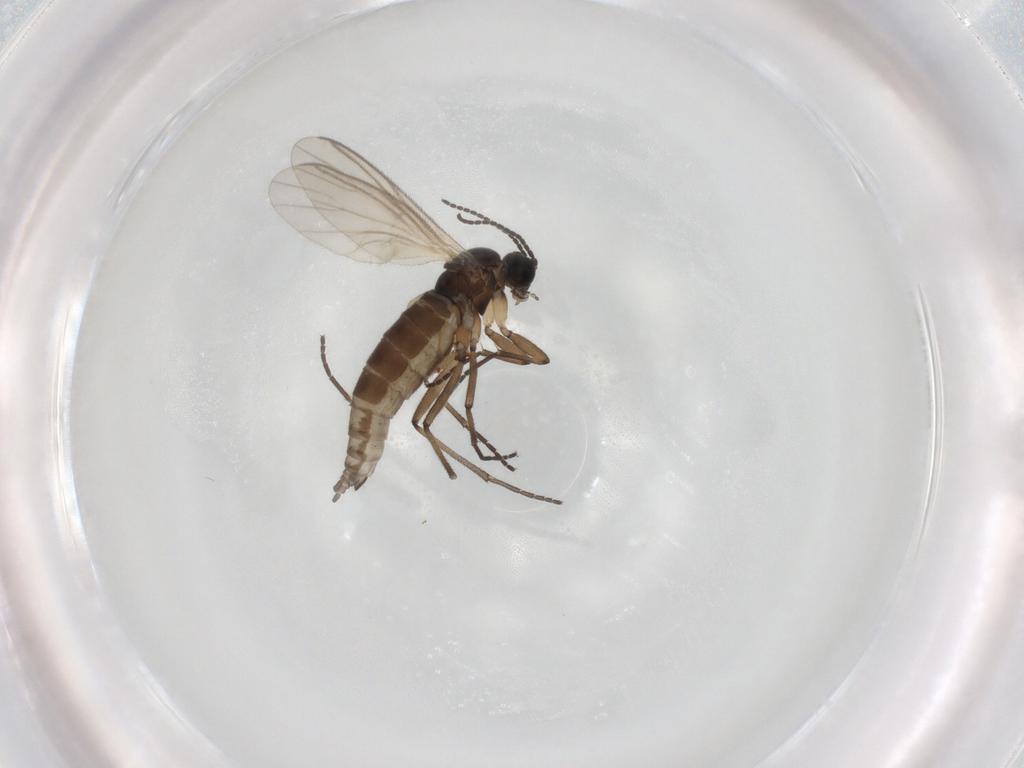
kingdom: Animalia
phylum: Arthropoda
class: Insecta
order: Diptera
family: Sciaridae
